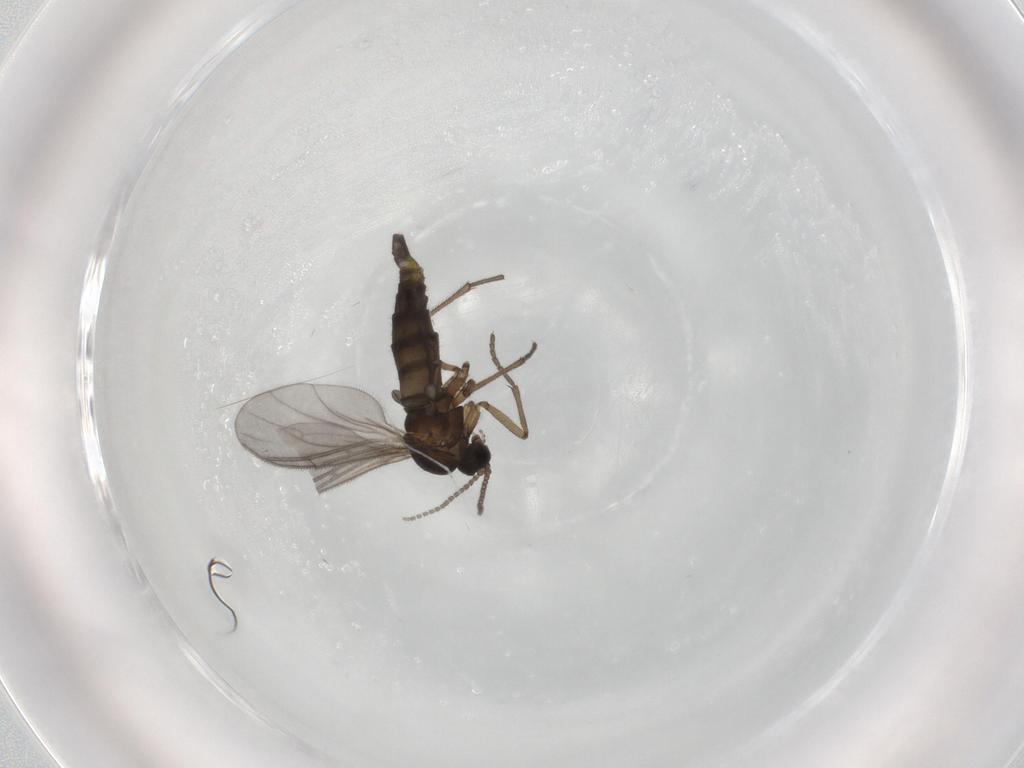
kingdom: Animalia
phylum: Arthropoda
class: Insecta
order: Diptera
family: Sciaridae
